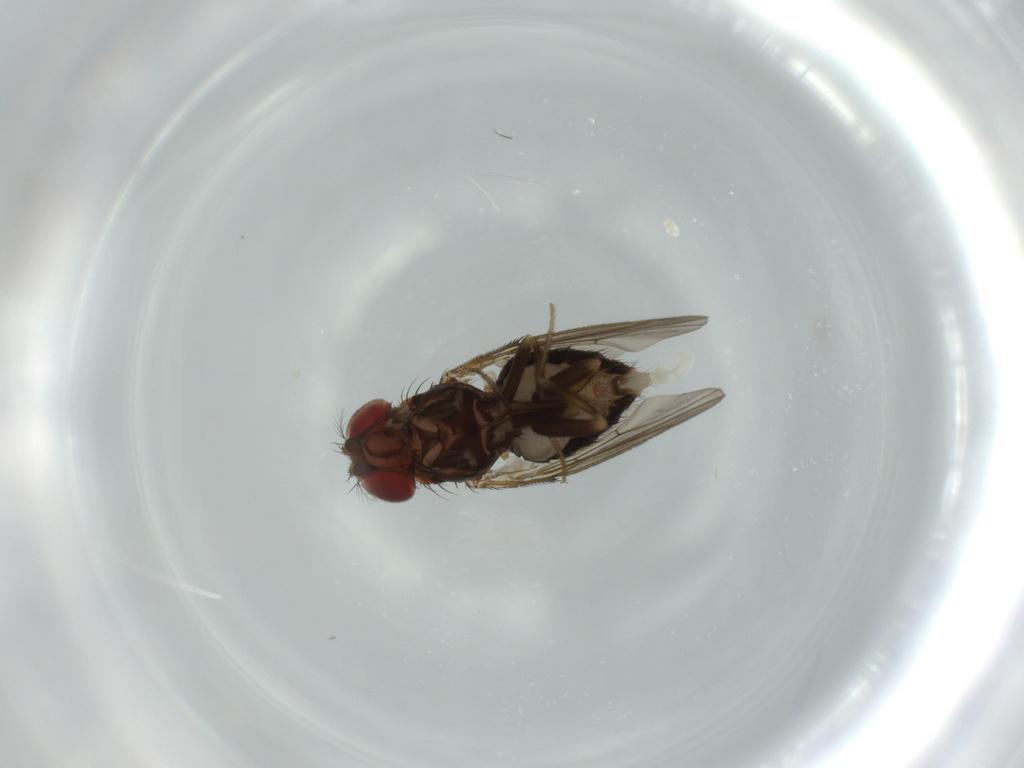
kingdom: Animalia
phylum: Arthropoda
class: Insecta
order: Diptera
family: Drosophilidae
